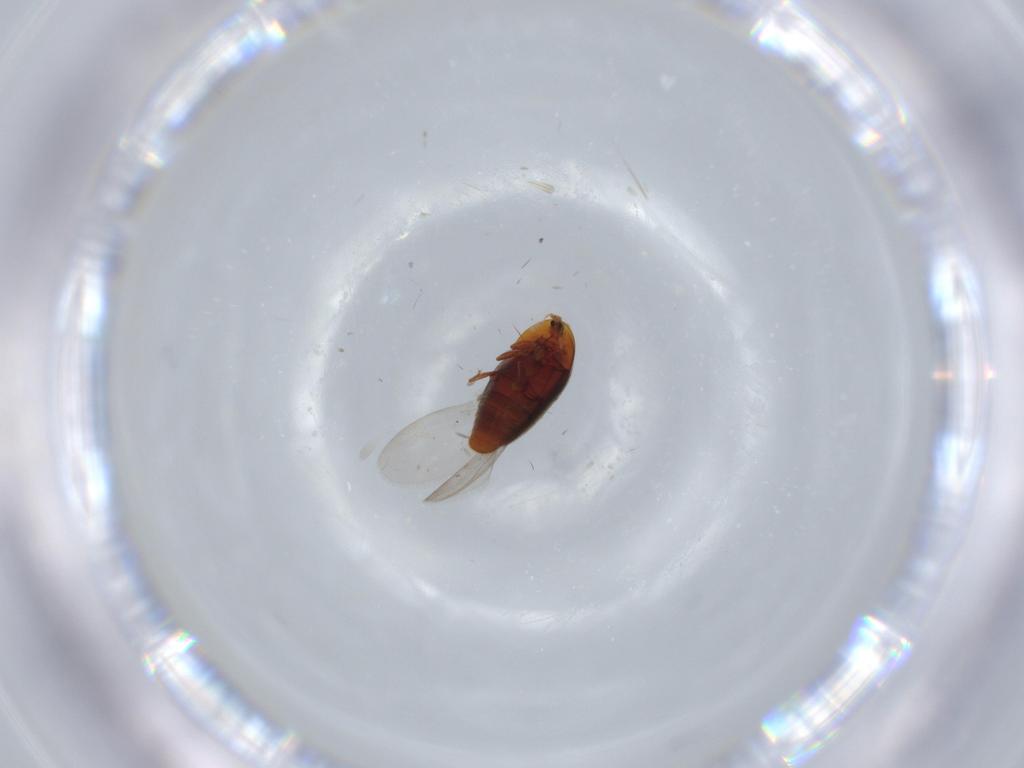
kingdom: Animalia
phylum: Arthropoda
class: Insecta
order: Coleoptera
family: Corylophidae
